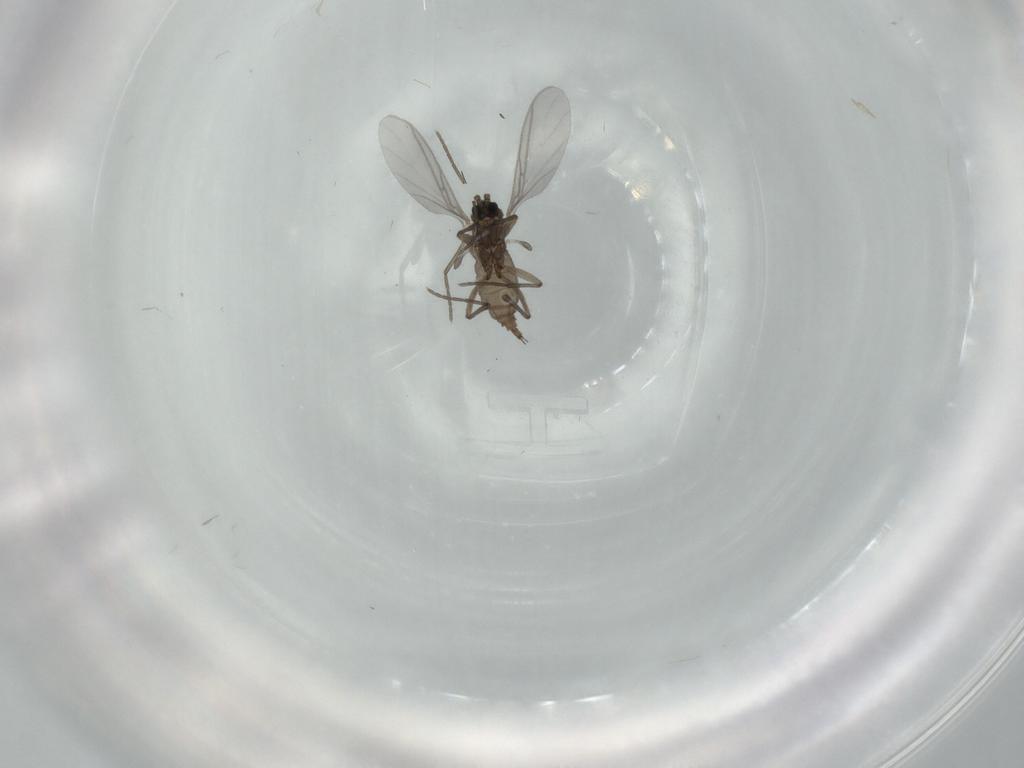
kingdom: Animalia
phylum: Arthropoda
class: Insecta
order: Diptera
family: Sciaridae
